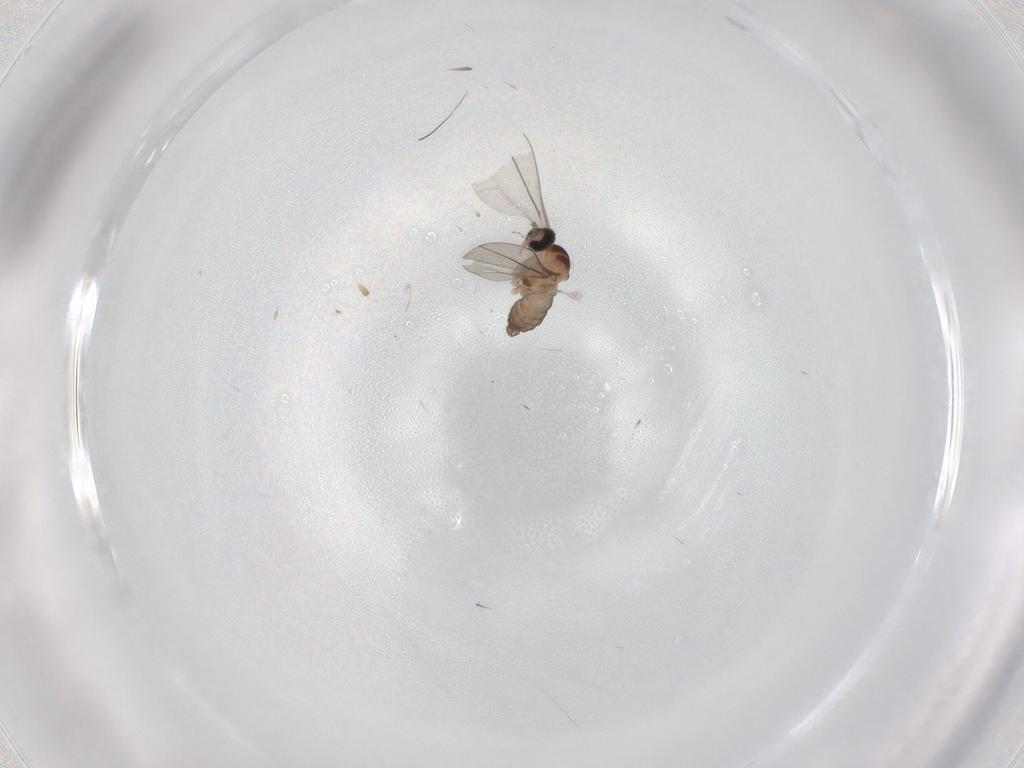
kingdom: Animalia
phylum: Arthropoda
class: Insecta
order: Diptera
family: Cecidomyiidae
